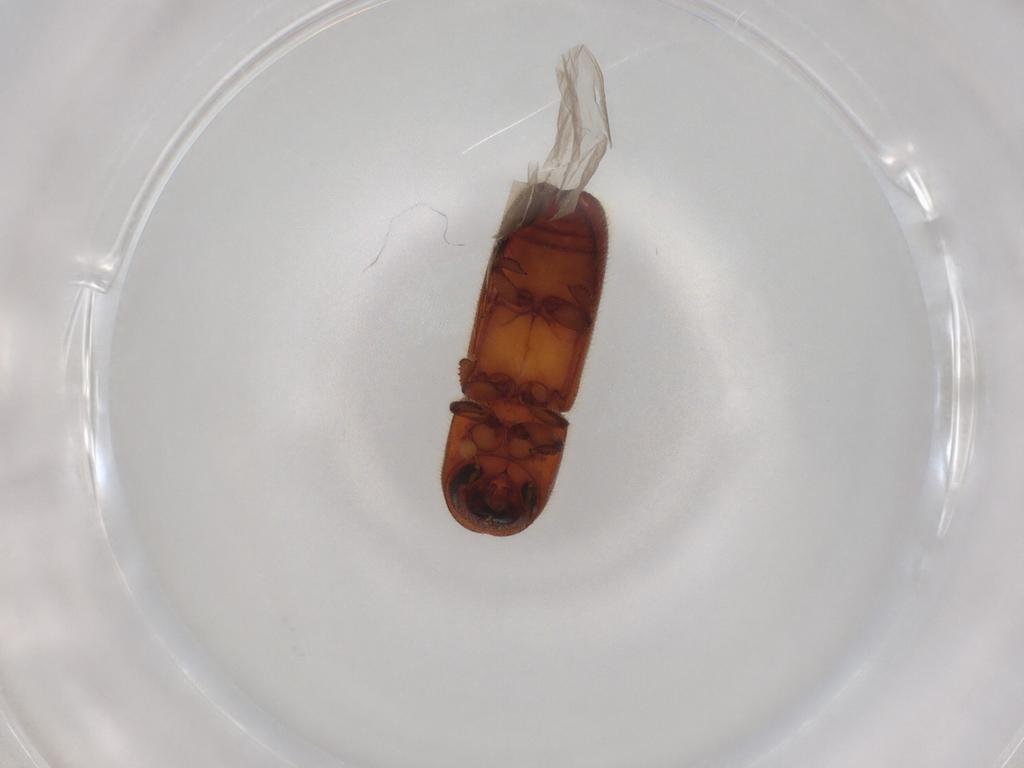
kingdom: Animalia
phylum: Arthropoda
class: Insecta
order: Coleoptera
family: Curculionidae
